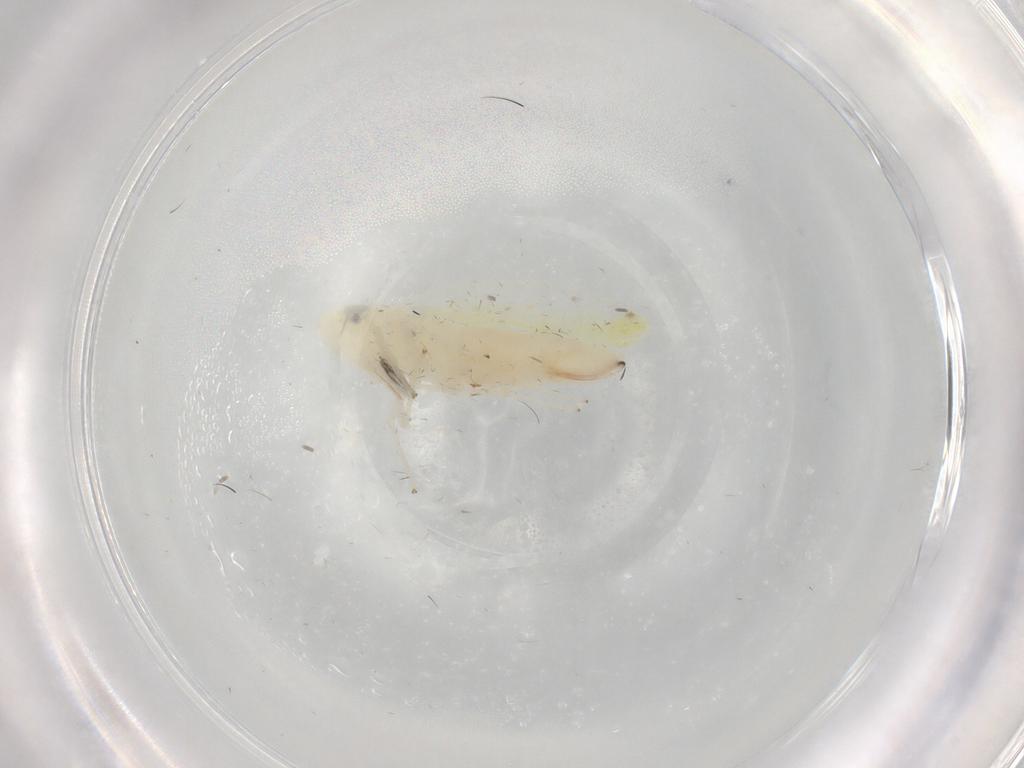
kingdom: Animalia
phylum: Arthropoda
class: Insecta
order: Hemiptera
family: Cicadellidae
